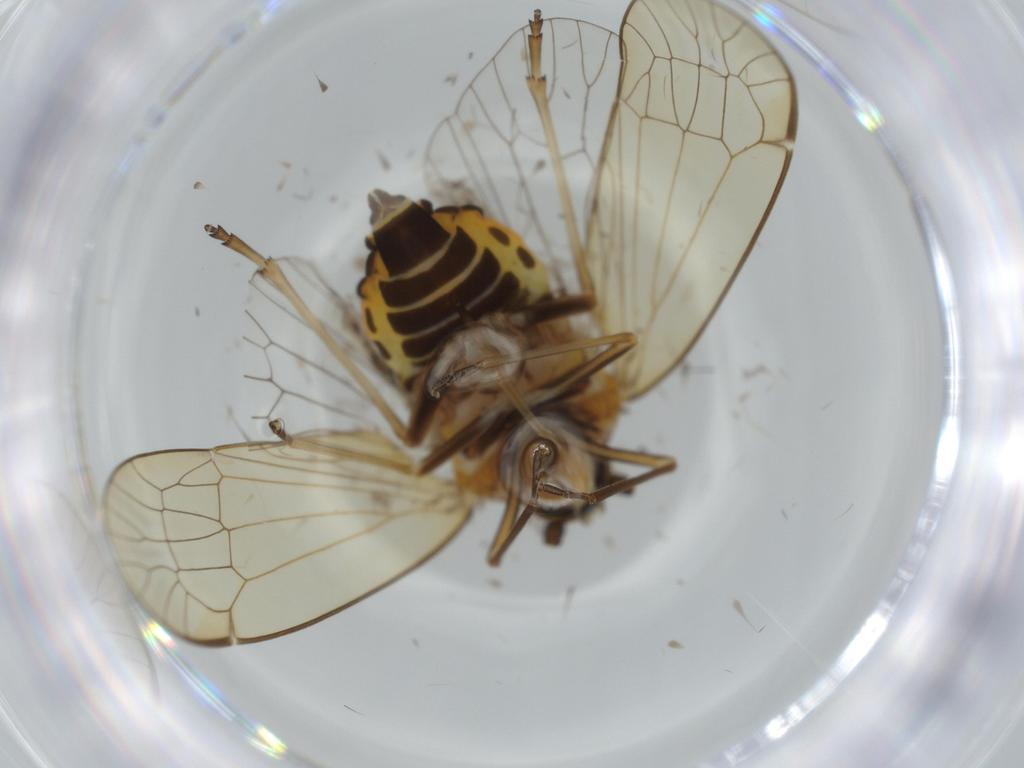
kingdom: Animalia
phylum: Arthropoda
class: Insecta
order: Hemiptera
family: Kinnaridae
